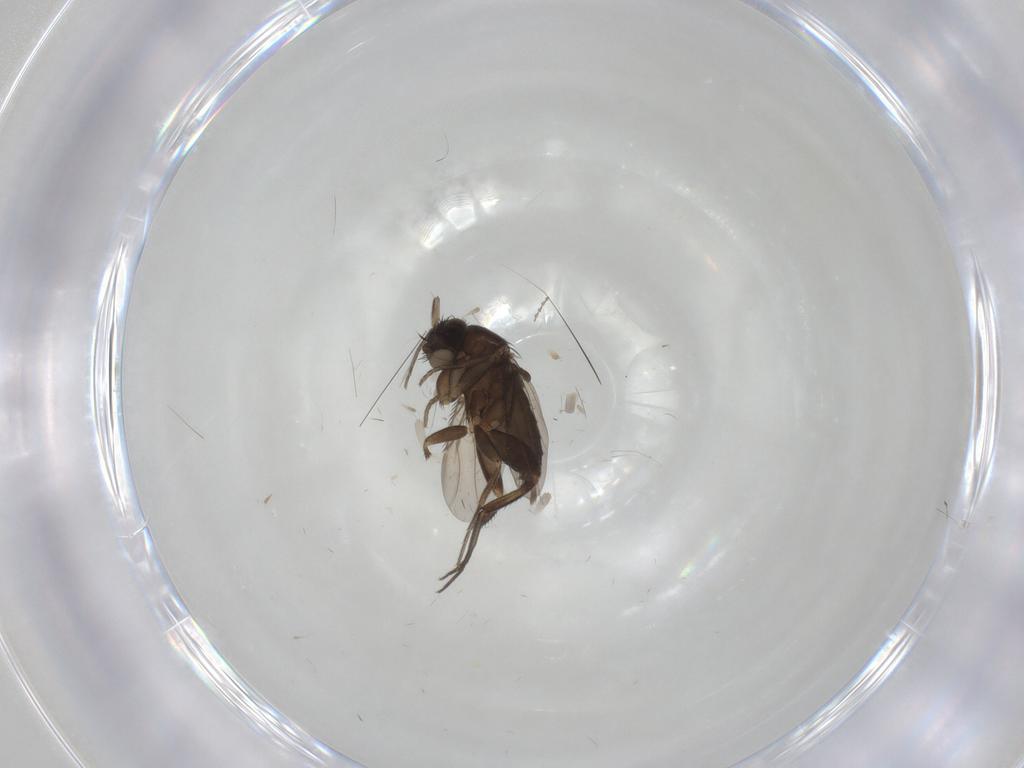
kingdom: Animalia
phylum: Arthropoda
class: Insecta
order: Diptera
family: Phoridae
